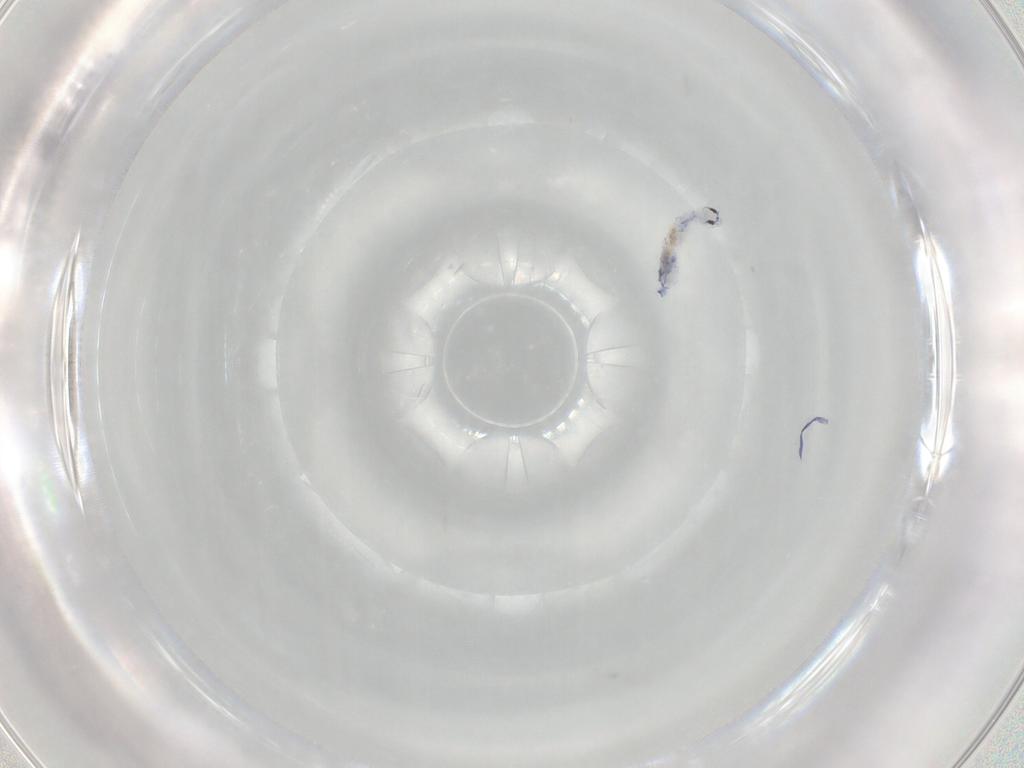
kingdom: Animalia
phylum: Arthropoda
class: Collembola
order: Entomobryomorpha
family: Entomobryidae
